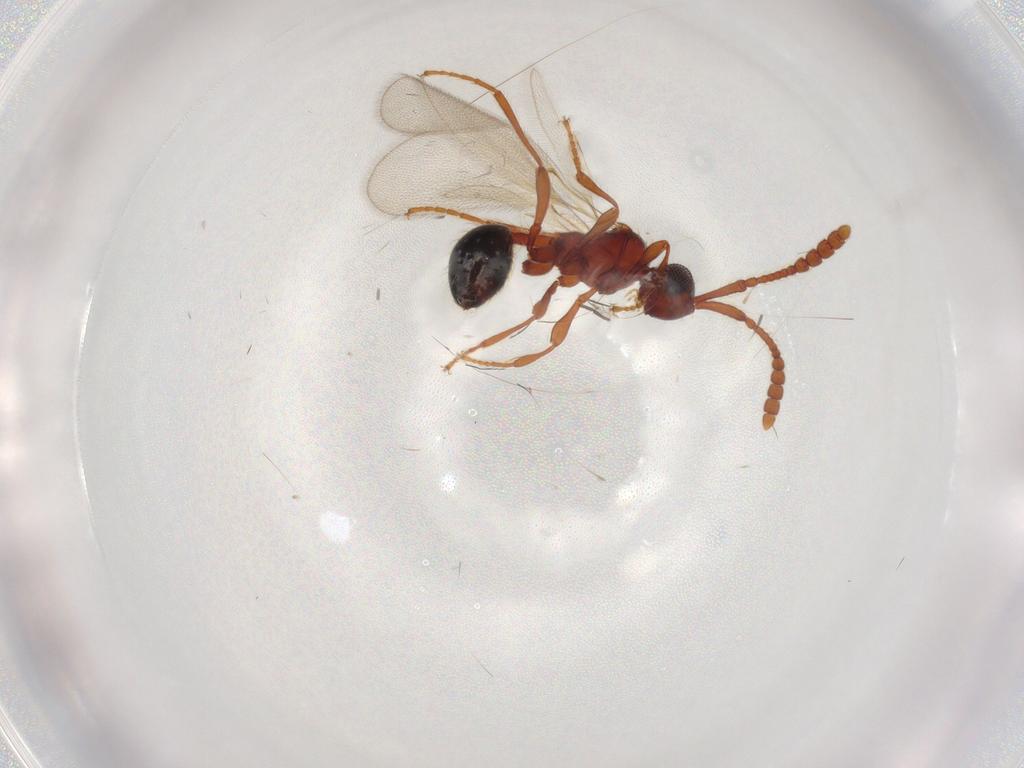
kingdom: Animalia
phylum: Arthropoda
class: Insecta
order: Hymenoptera
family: Diapriidae
